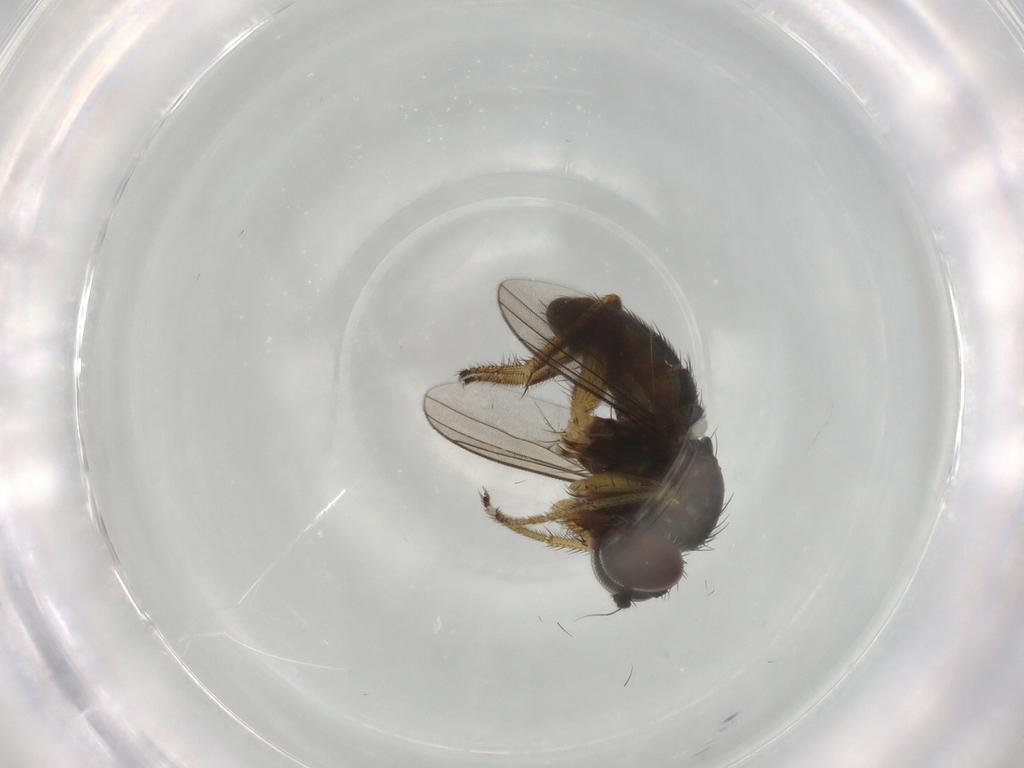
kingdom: Animalia
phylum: Arthropoda
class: Insecta
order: Diptera
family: Dolichopodidae
